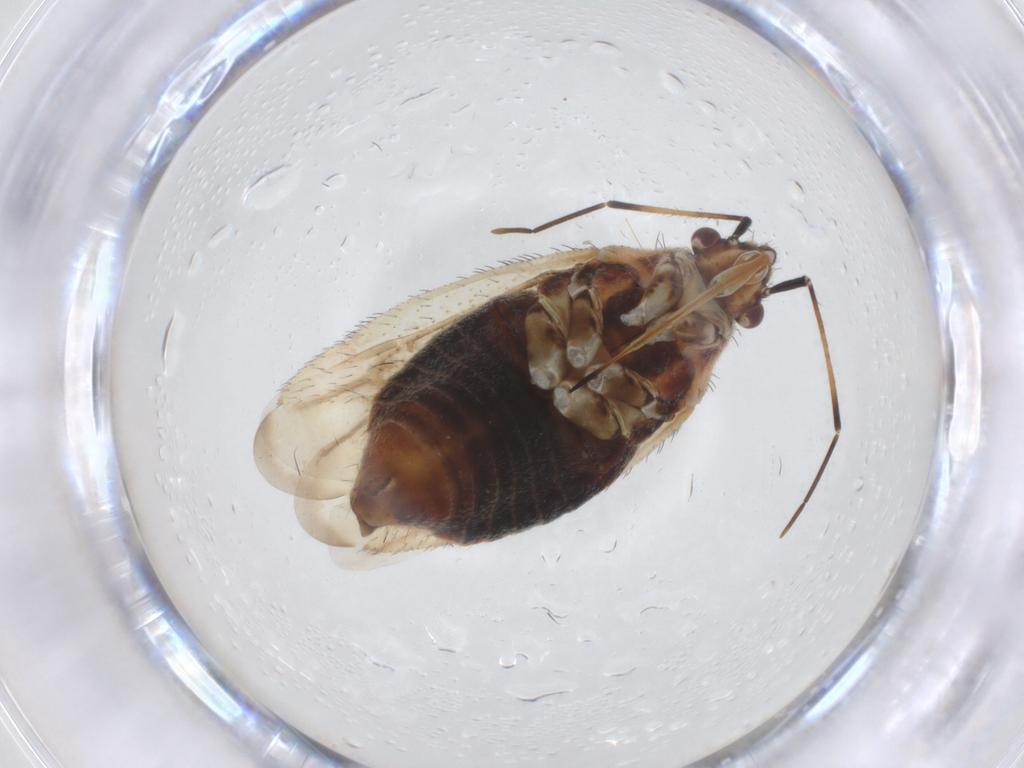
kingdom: Animalia
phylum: Arthropoda
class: Insecta
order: Hemiptera
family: Miridae
